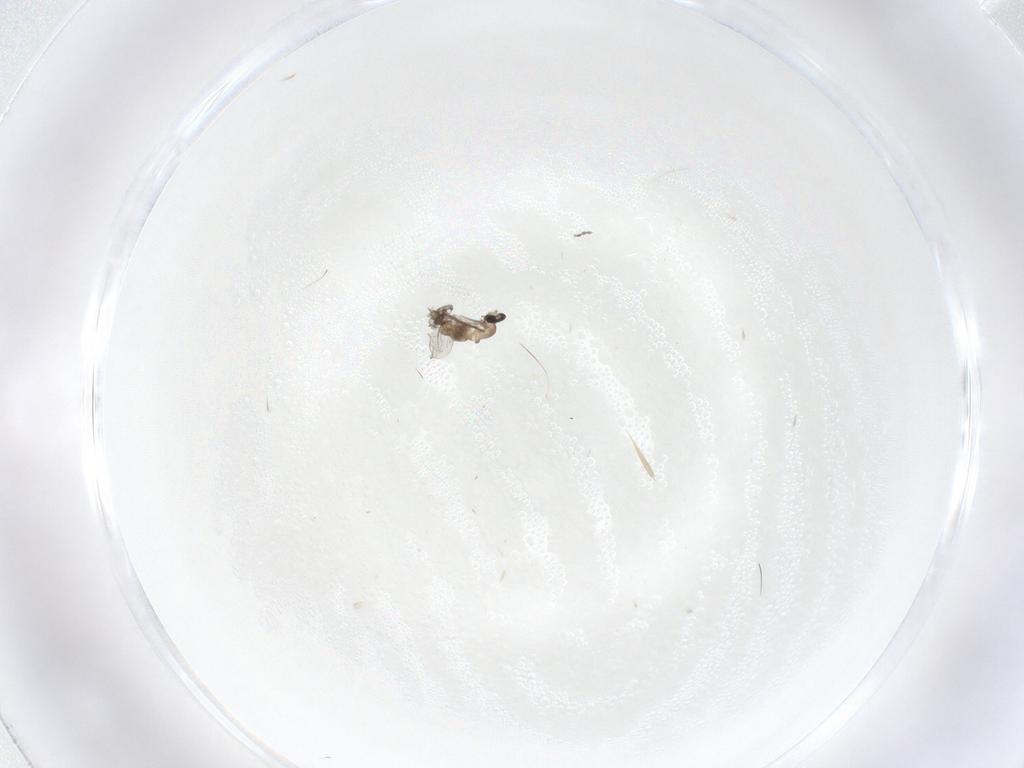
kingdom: Animalia
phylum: Arthropoda
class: Insecta
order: Diptera
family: Cecidomyiidae
